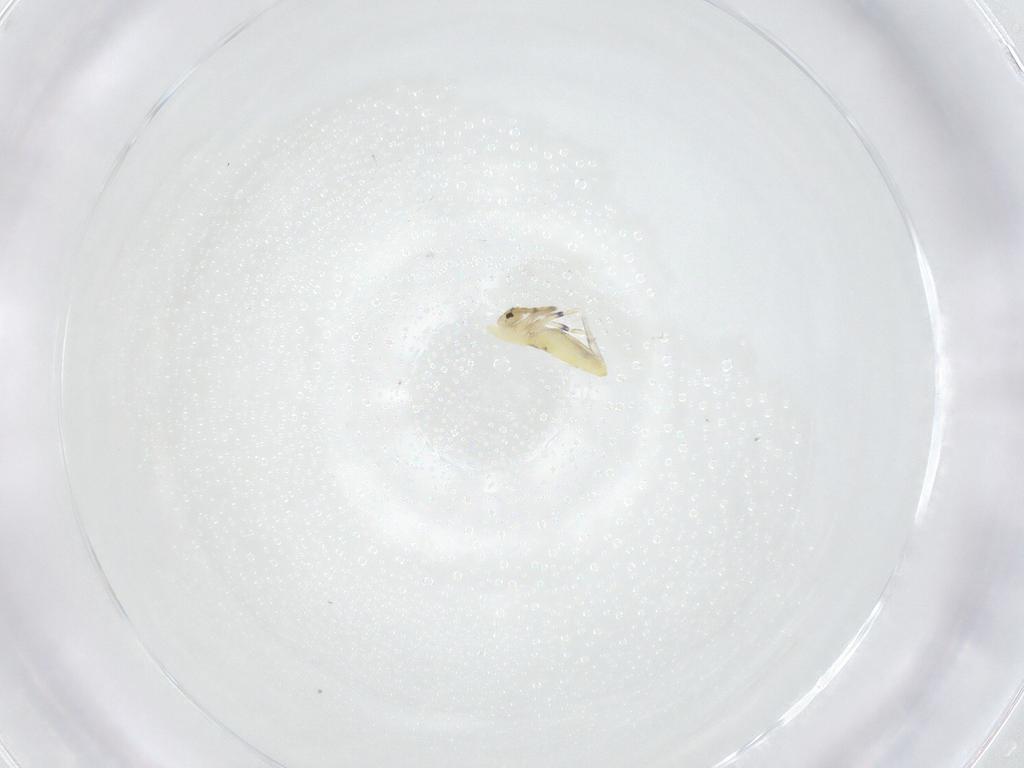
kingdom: Animalia
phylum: Arthropoda
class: Collembola
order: Entomobryomorpha
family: Entomobryidae
